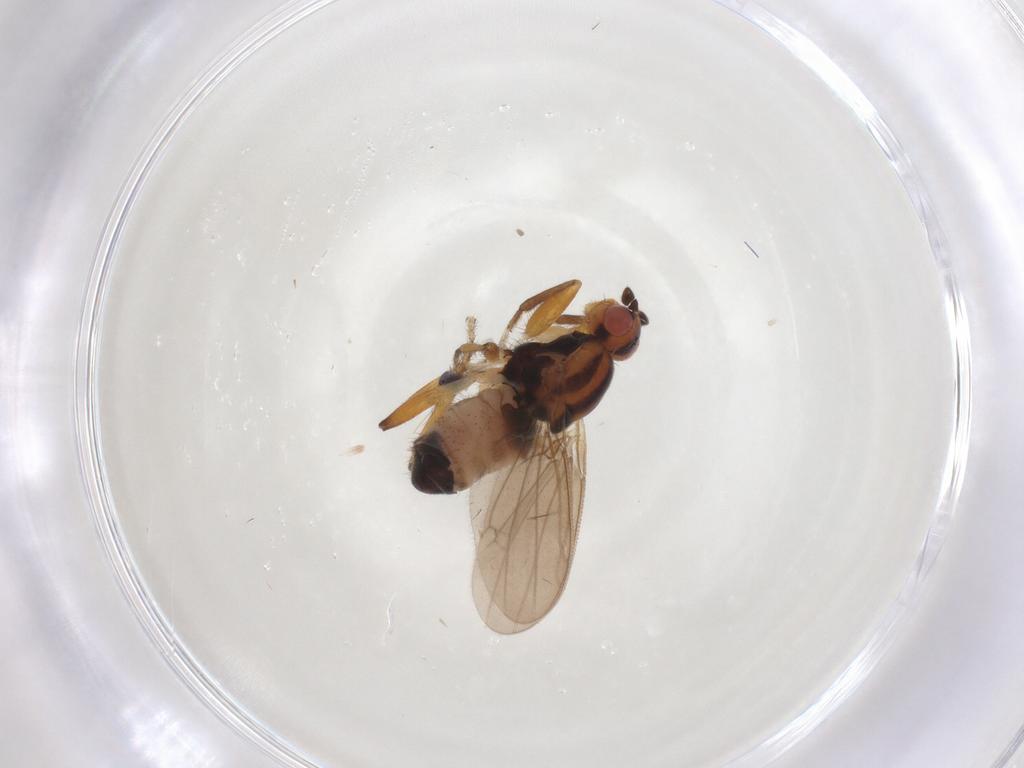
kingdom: Animalia
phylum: Arthropoda
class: Insecta
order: Diptera
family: Sphaeroceridae
